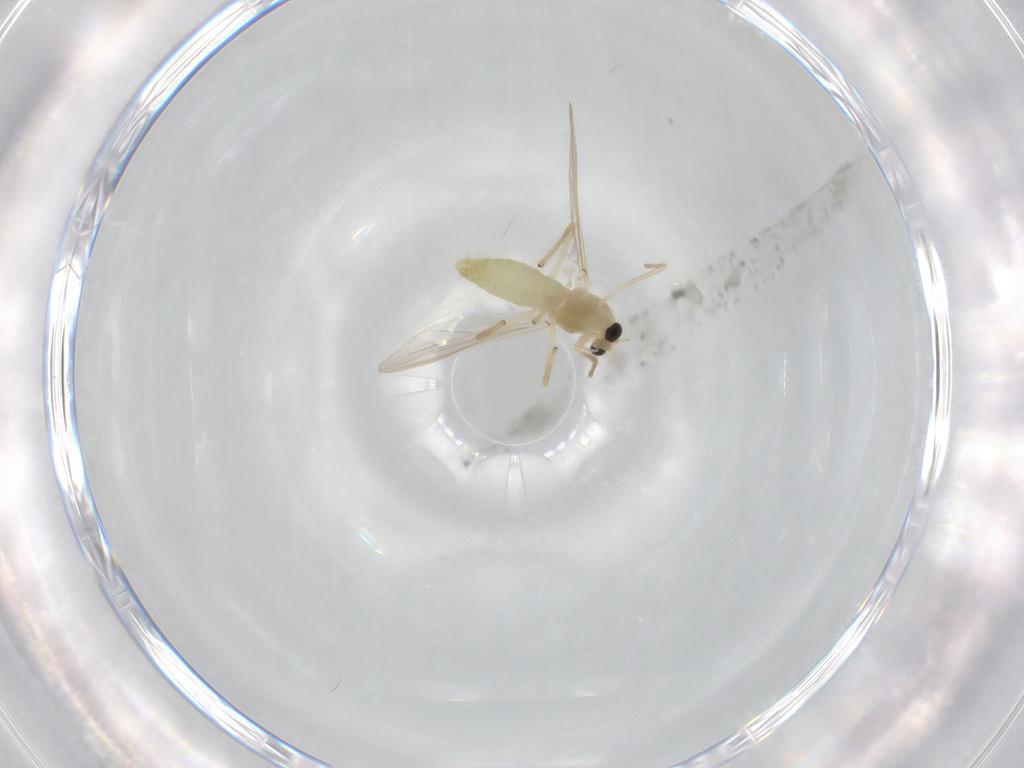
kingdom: Animalia
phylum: Arthropoda
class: Insecta
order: Diptera
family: Chironomidae
